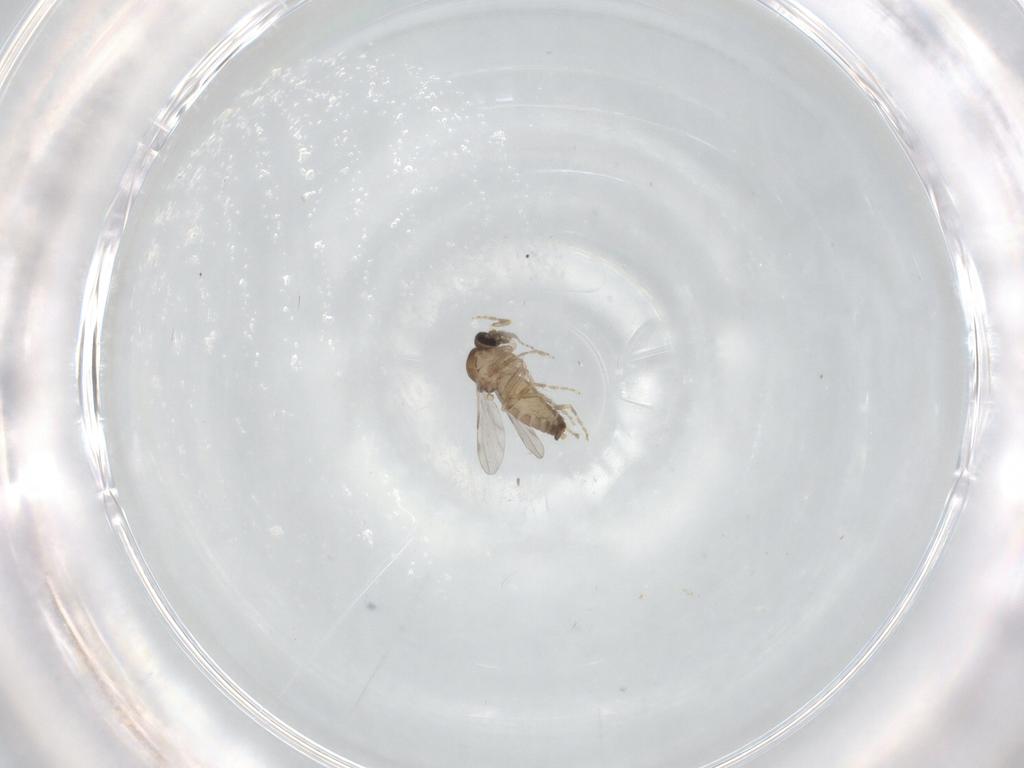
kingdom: Animalia
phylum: Arthropoda
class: Insecta
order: Diptera
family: Ceratopogonidae
